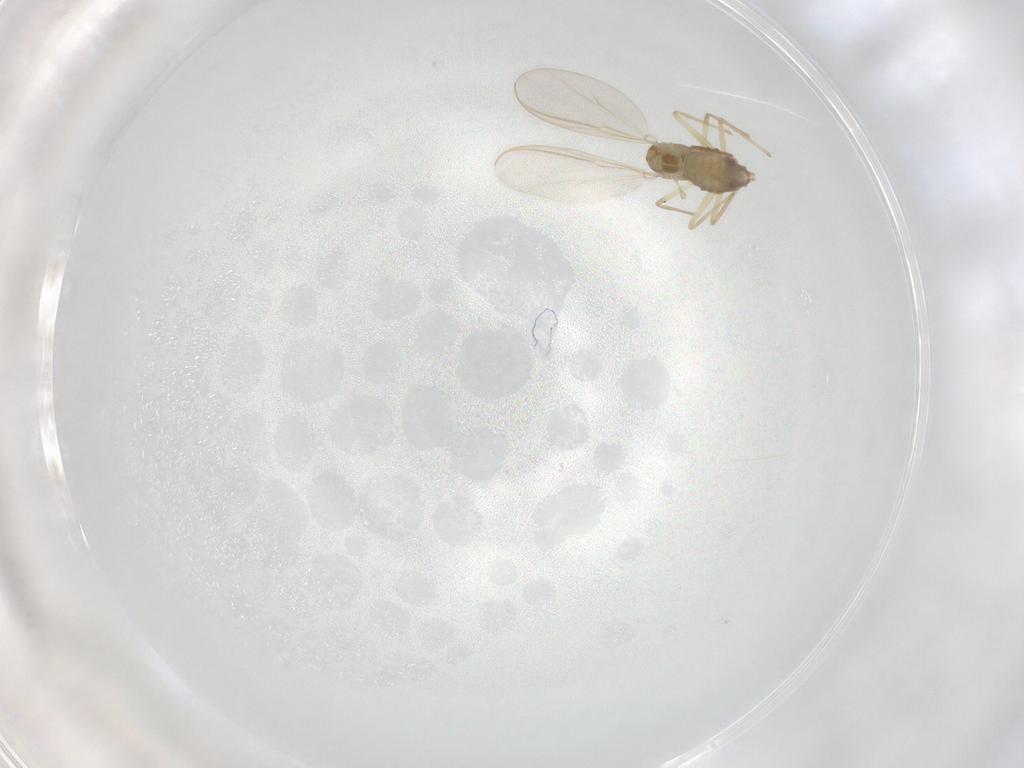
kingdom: Animalia
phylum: Arthropoda
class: Insecta
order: Diptera
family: Chironomidae
